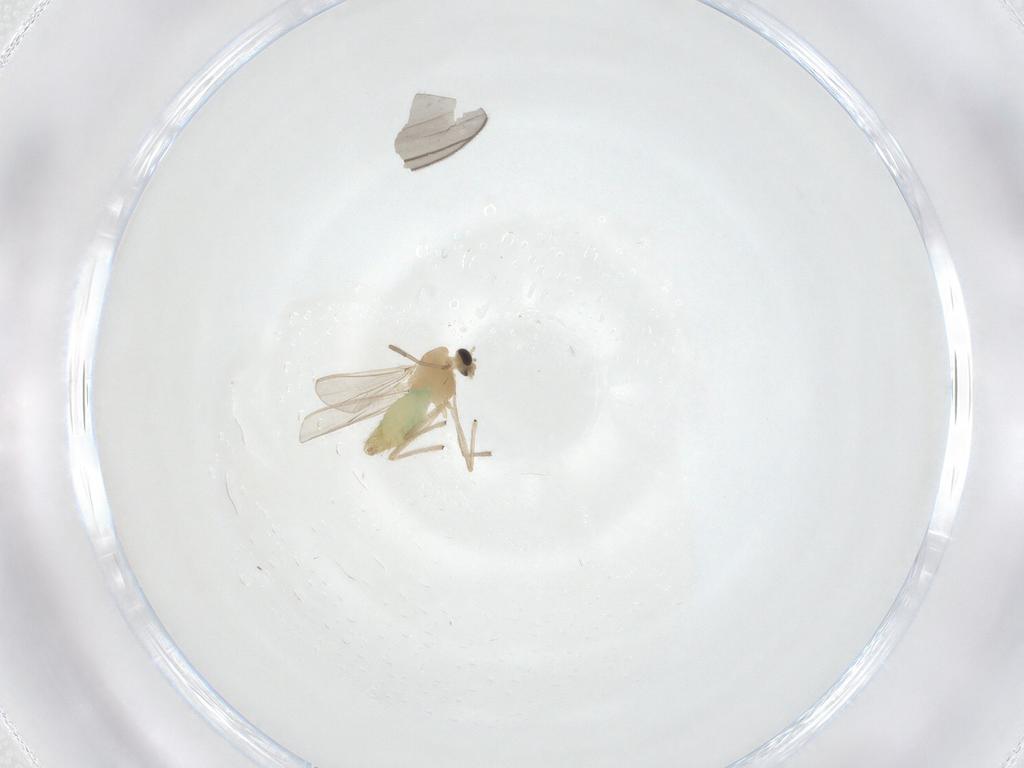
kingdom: Animalia
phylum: Arthropoda
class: Insecta
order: Diptera
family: Chironomidae
